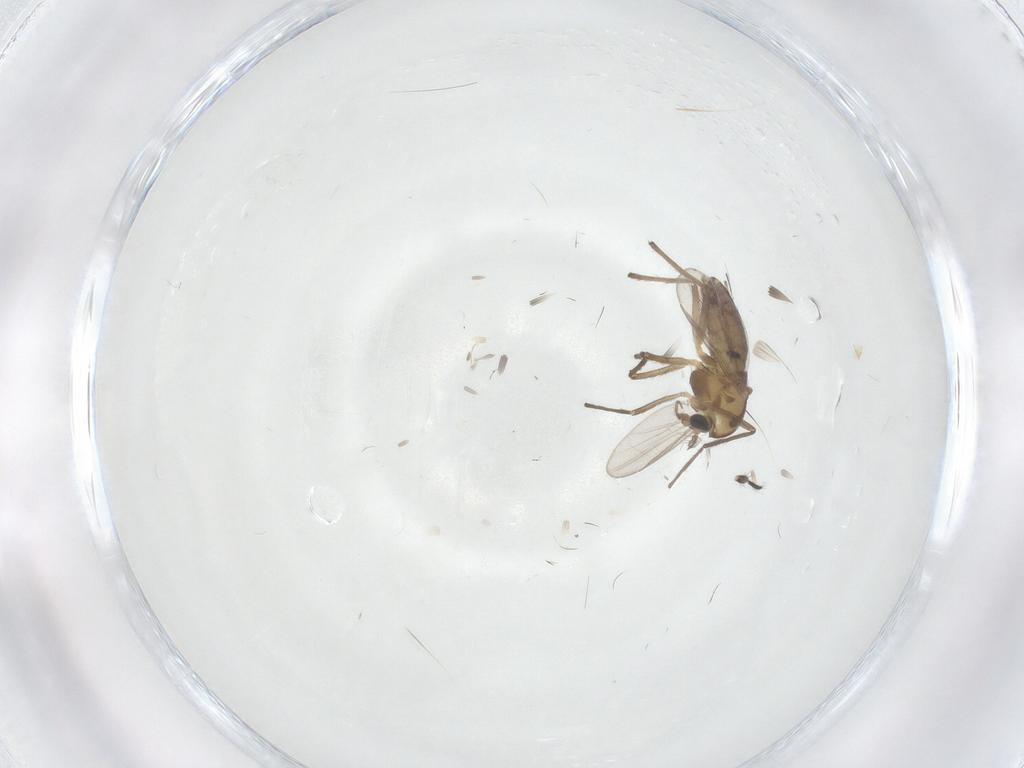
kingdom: Animalia
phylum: Arthropoda
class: Insecta
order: Diptera
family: Chironomidae
